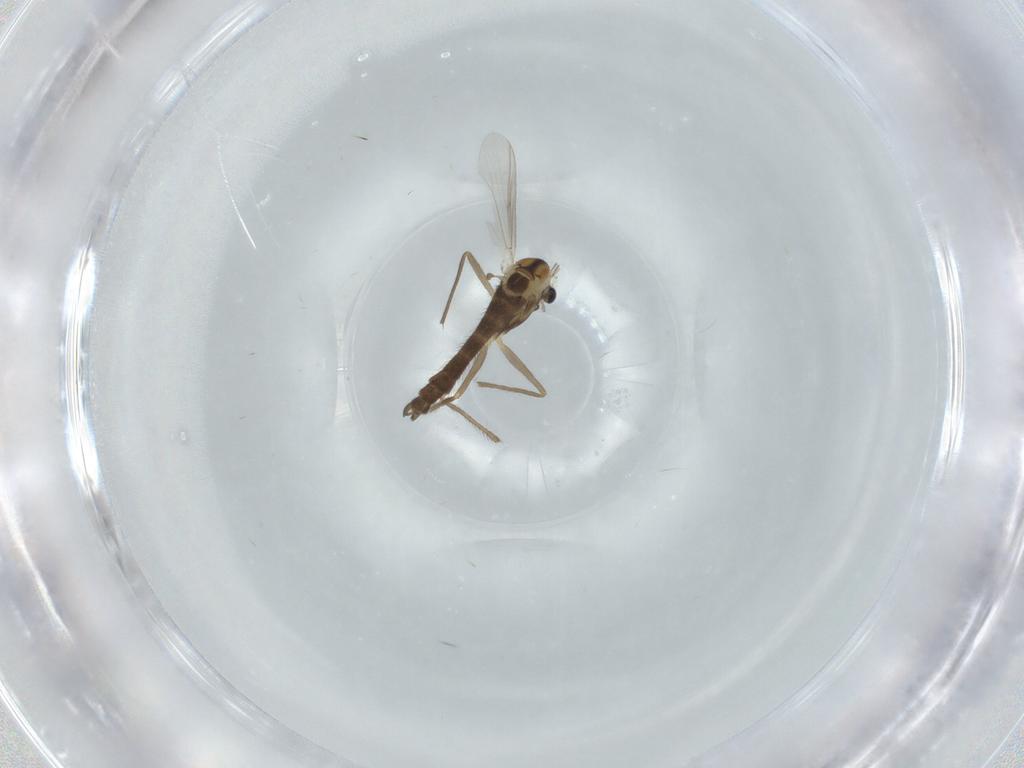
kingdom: Animalia
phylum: Arthropoda
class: Insecta
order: Diptera
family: Chironomidae
